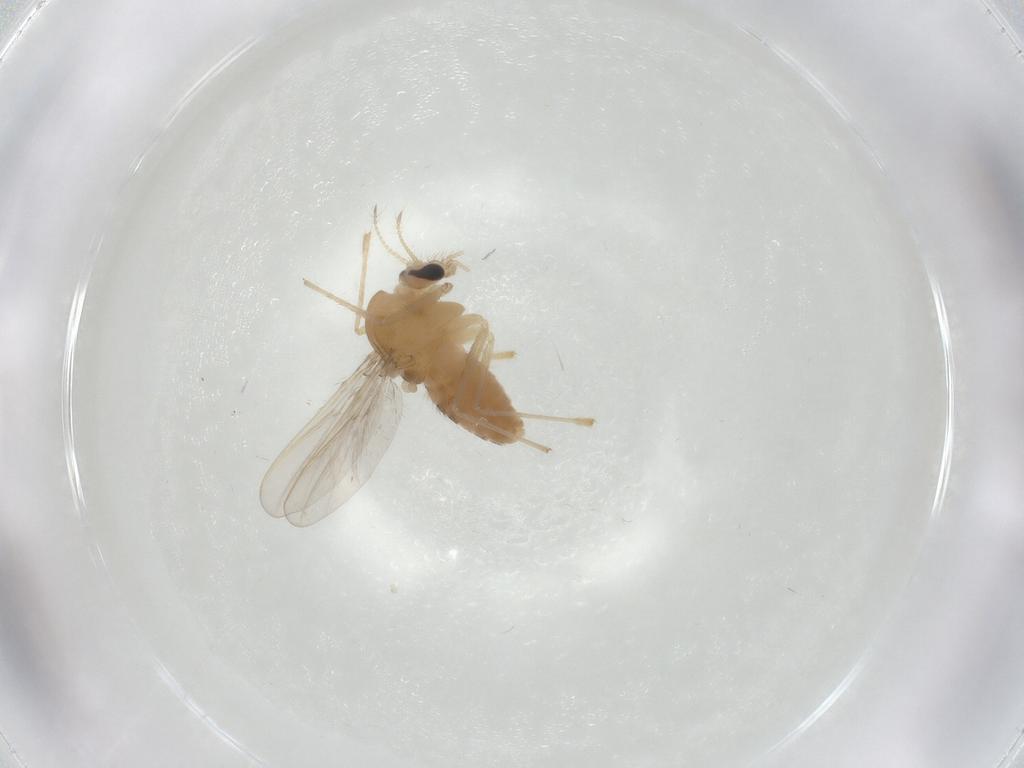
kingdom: Animalia
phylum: Arthropoda
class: Insecta
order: Diptera
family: Chironomidae
